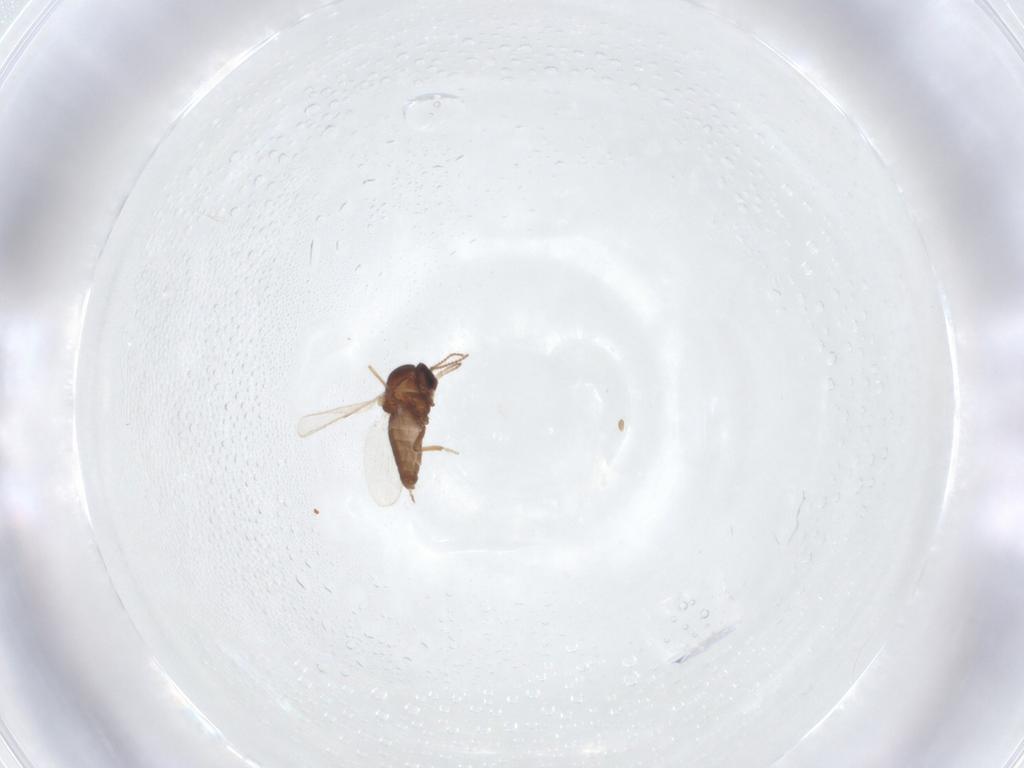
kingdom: Animalia
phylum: Arthropoda
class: Insecta
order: Diptera
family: Ceratopogonidae
